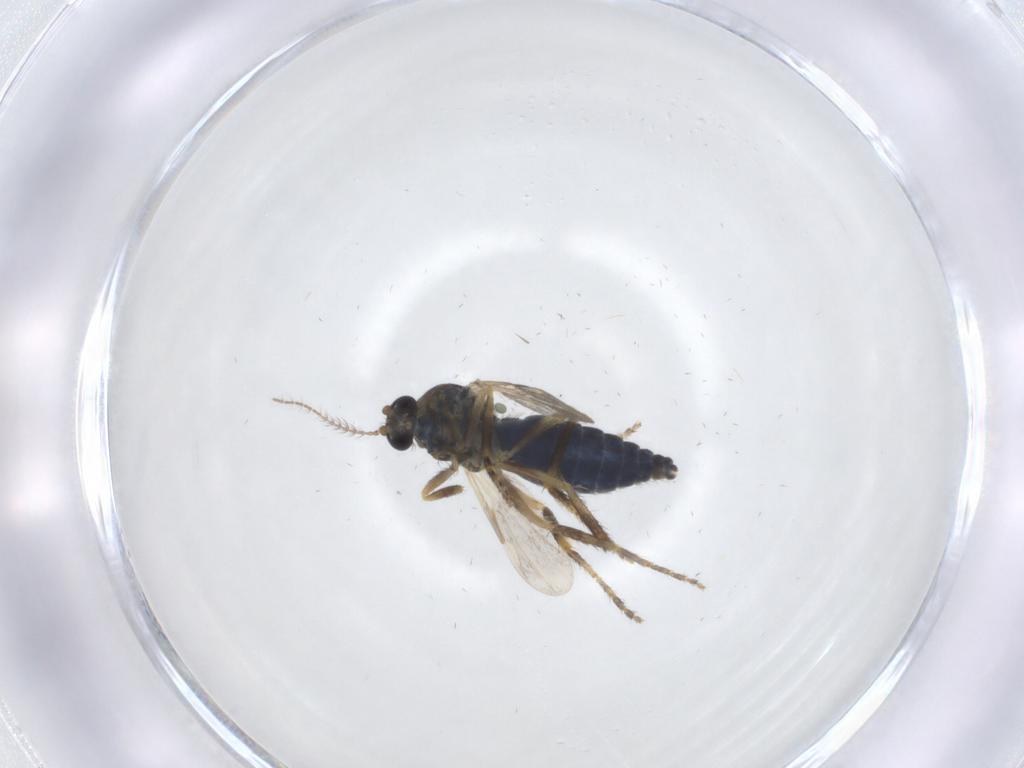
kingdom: Animalia
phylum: Arthropoda
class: Insecta
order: Diptera
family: Ceratopogonidae
